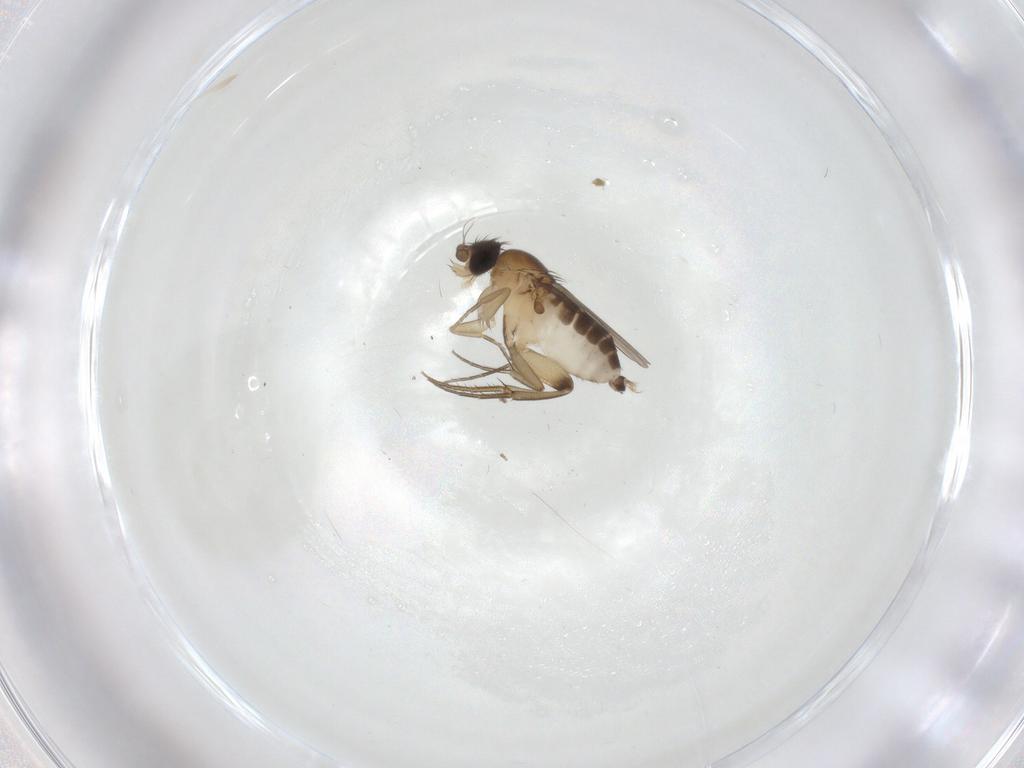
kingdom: Animalia
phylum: Arthropoda
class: Insecta
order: Diptera
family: Phoridae
